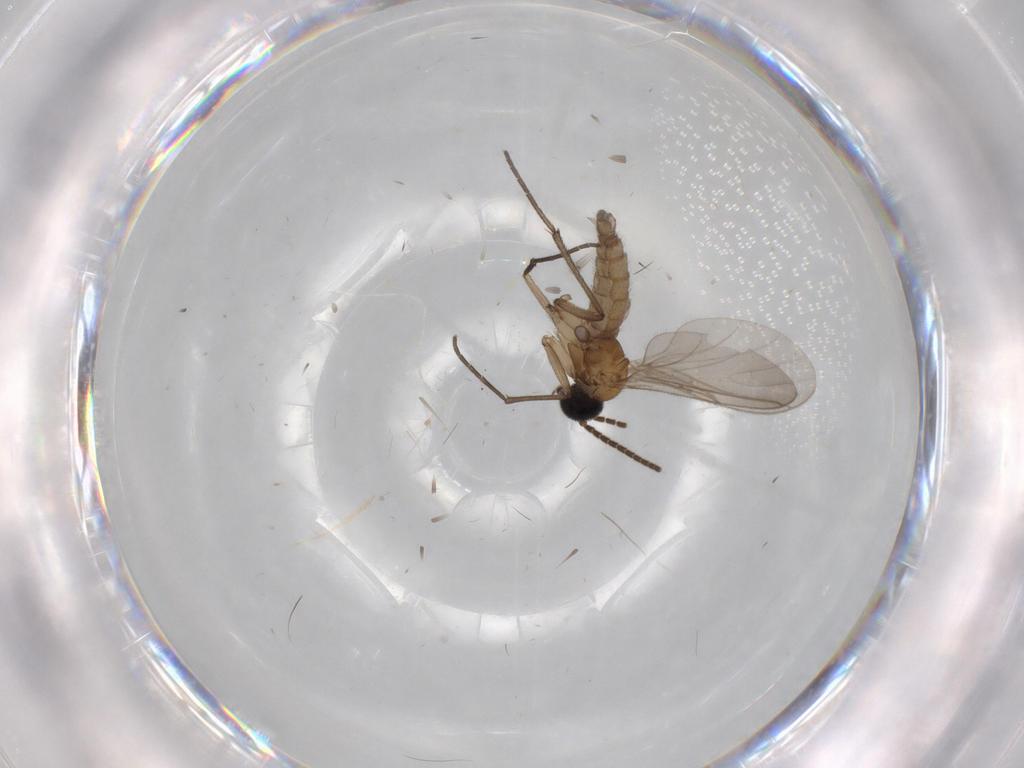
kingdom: Animalia
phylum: Arthropoda
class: Insecta
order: Diptera
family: Sciaridae
